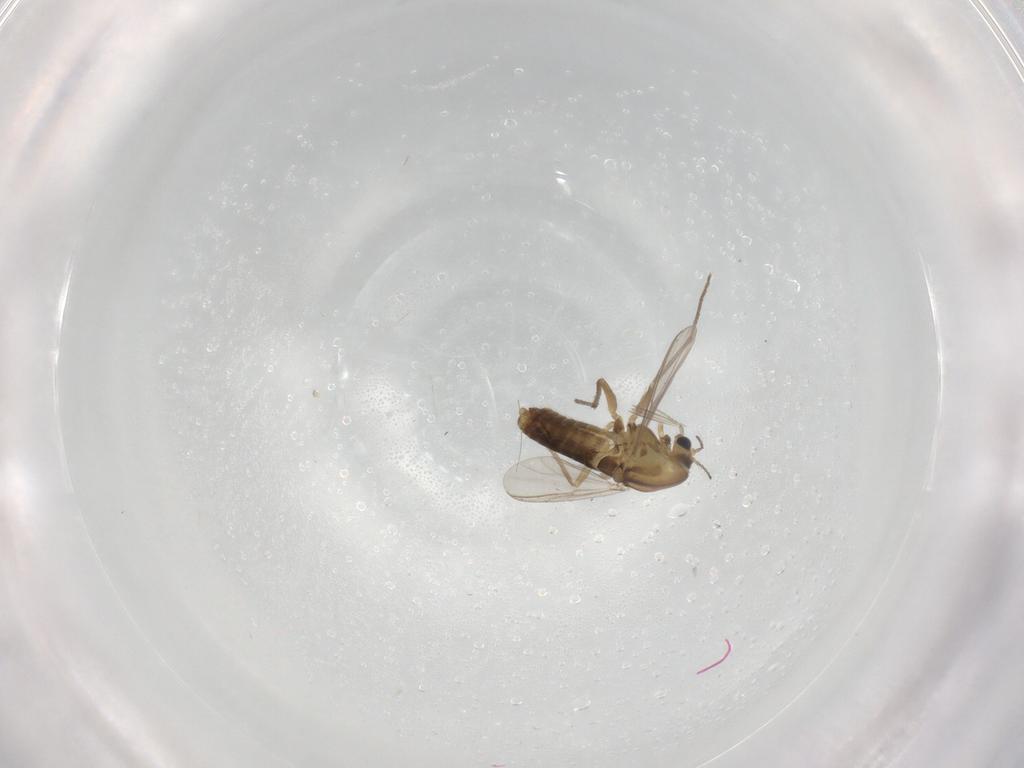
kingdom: Animalia
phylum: Arthropoda
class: Insecta
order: Diptera
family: Chironomidae
